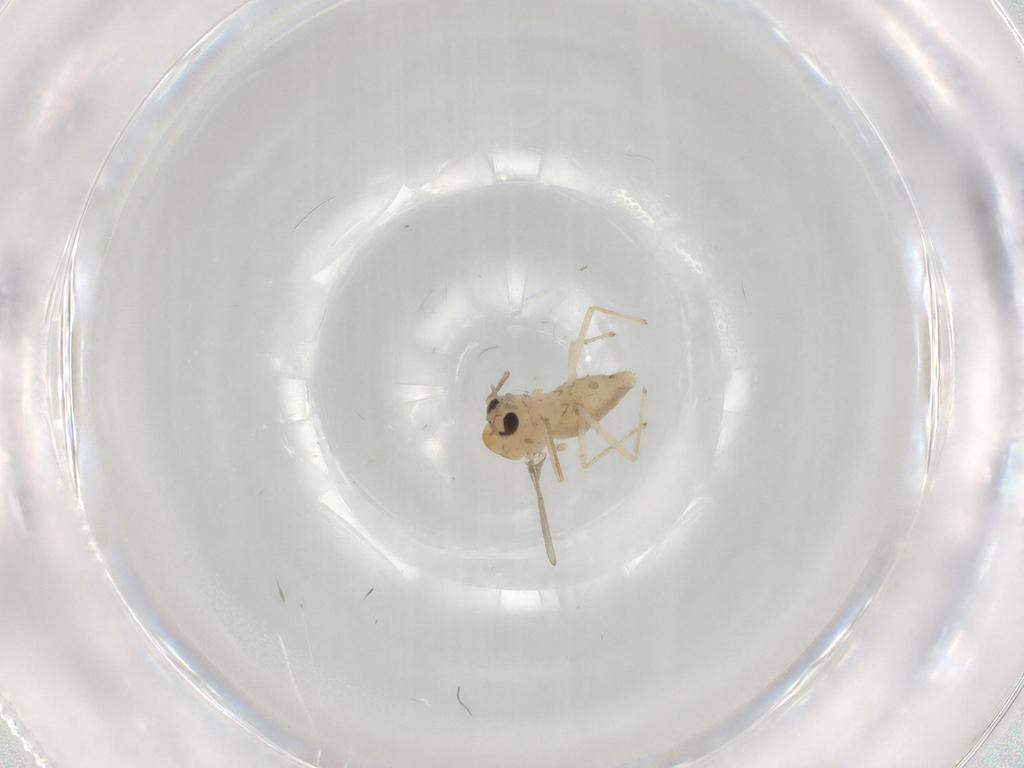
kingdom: Animalia
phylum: Arthropoda
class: Insecta
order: Diptera
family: Chironomidae
